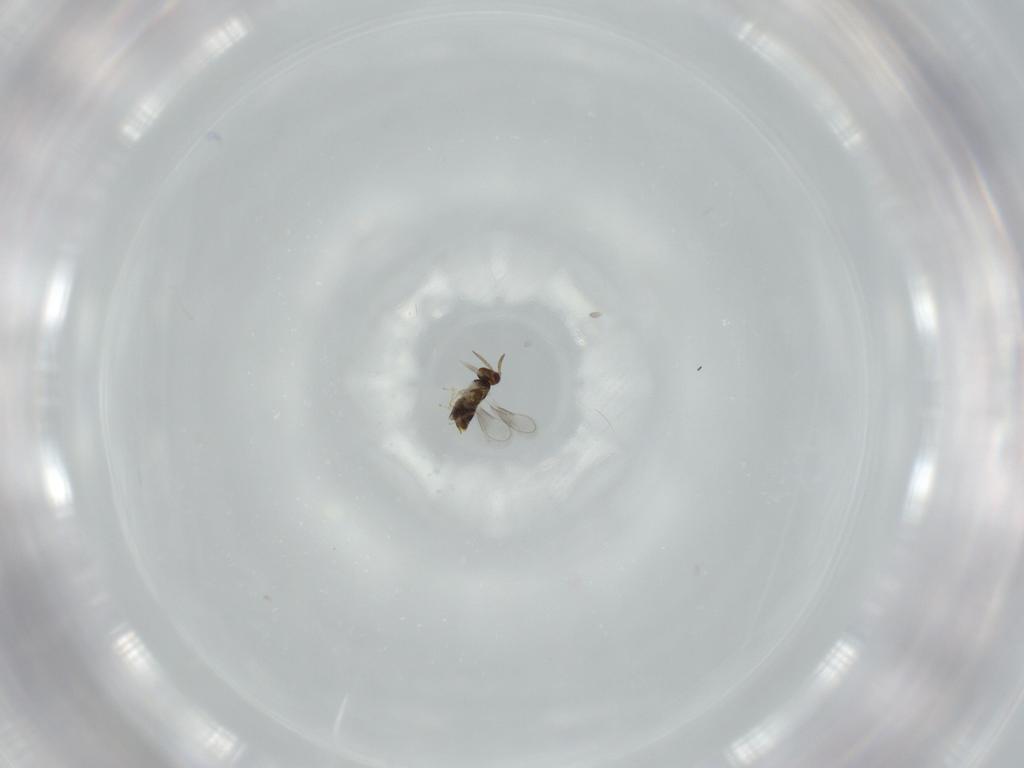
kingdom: Animalia
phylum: Arthropoda
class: Insecta
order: Hymenoptera
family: Aphelinidae
